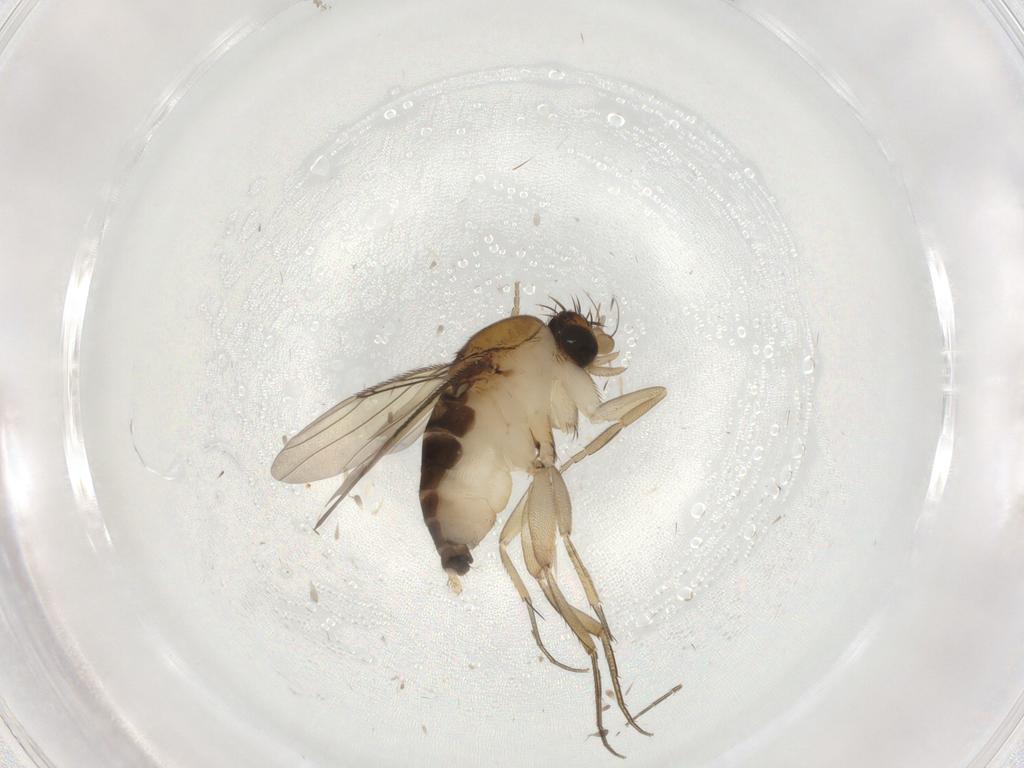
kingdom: Animalia
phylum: Arthropoda
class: Insecta
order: Diptera
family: Phoridae
